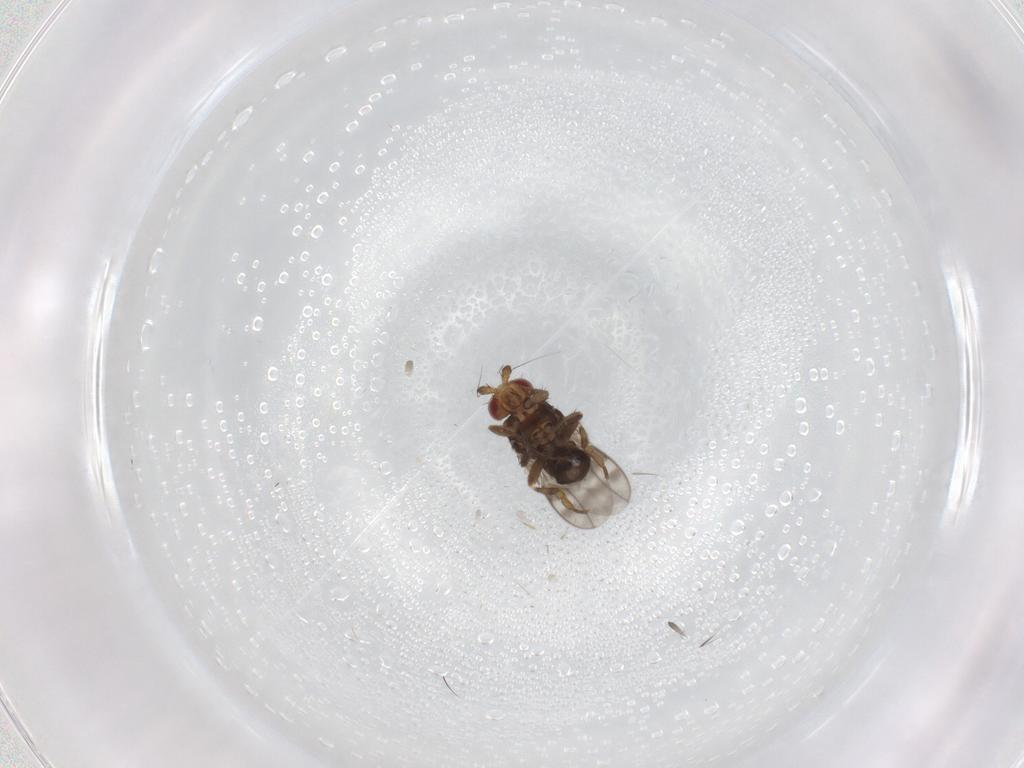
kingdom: Animalia
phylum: Arthropoda
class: Insecta
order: Diptera
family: Sphaeroceridae
